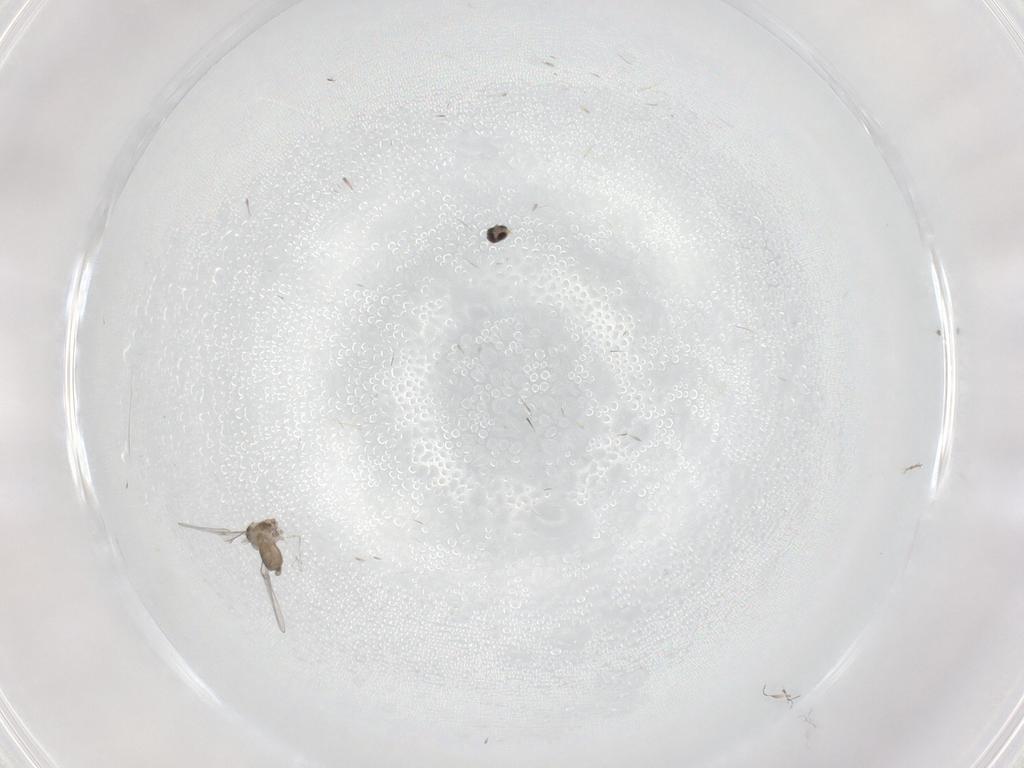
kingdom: Animalia
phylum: Arthropoda
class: Insecta
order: Diptera
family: Cecidomyiidae
